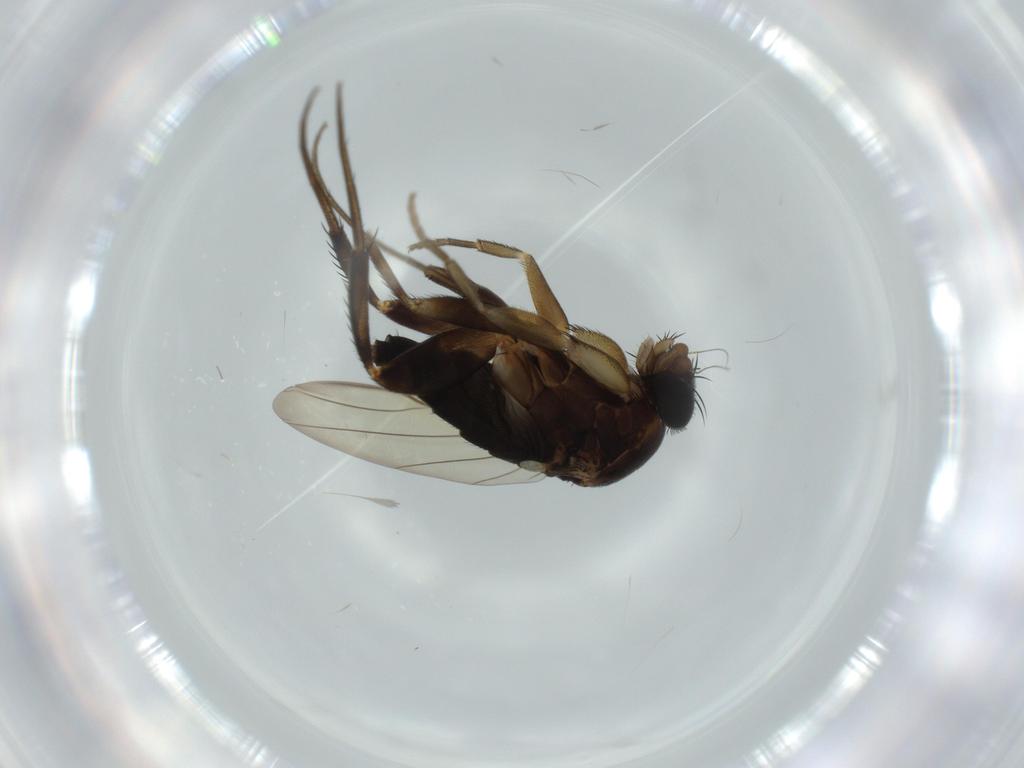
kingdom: Animalia
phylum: Arthropoda
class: Insecta
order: Diptera
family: Phoridae
